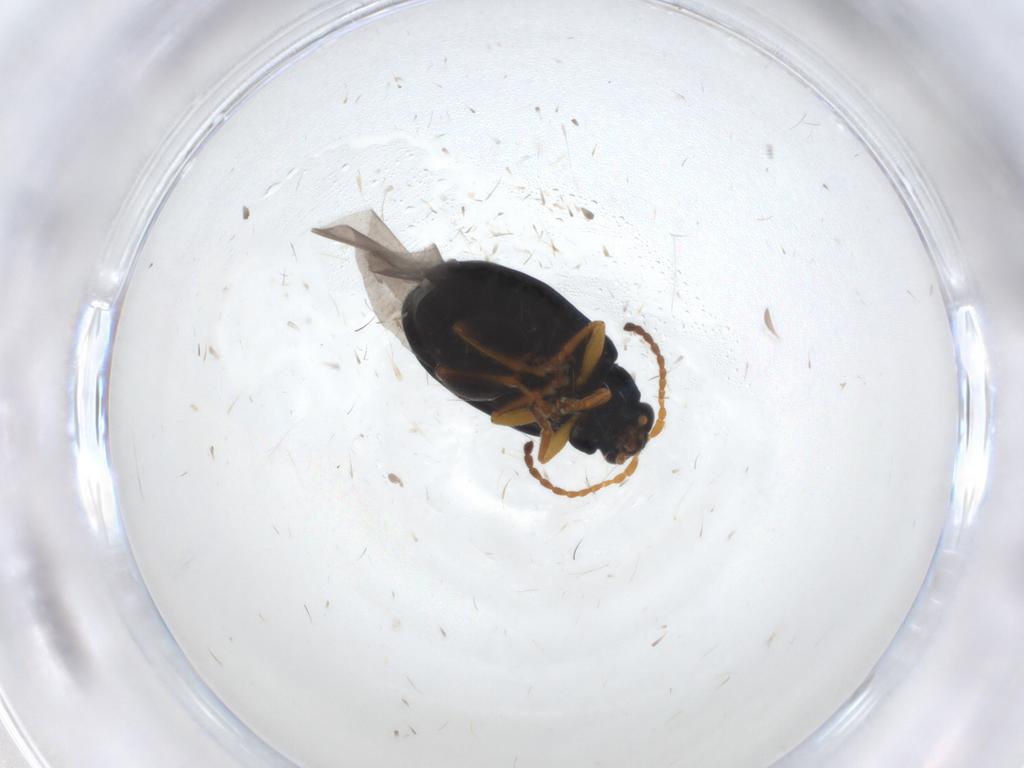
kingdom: Animalia
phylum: Arthropoda
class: Insecta
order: Coleoptera
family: Chrysomelidae
